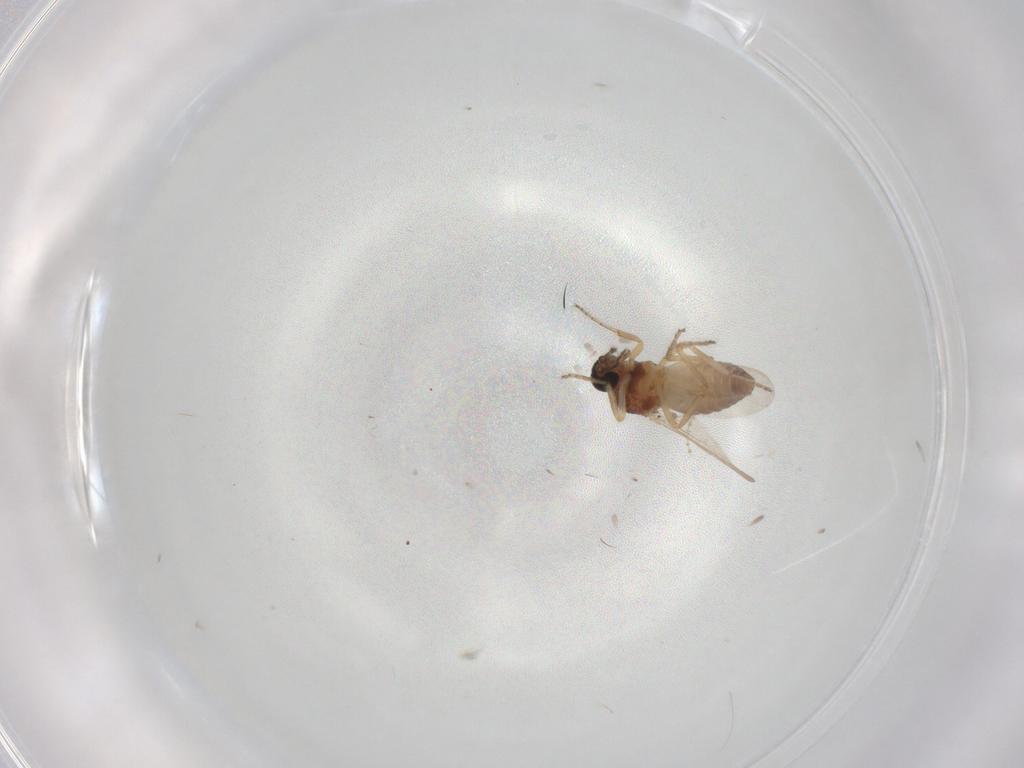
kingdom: Animalia
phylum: Arthropoda
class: Insecta
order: Diptera
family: Ceratopogonidae
